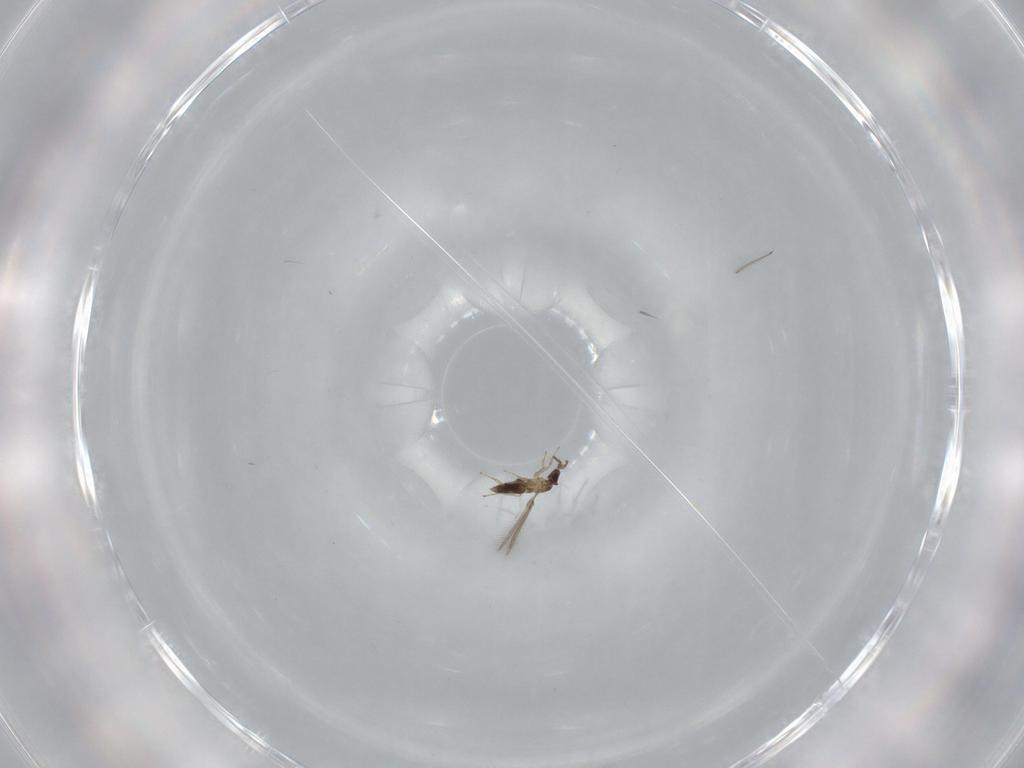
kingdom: Animalia
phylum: Arthropoda
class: Insecta
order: Hymenoptera
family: Mymaridae
